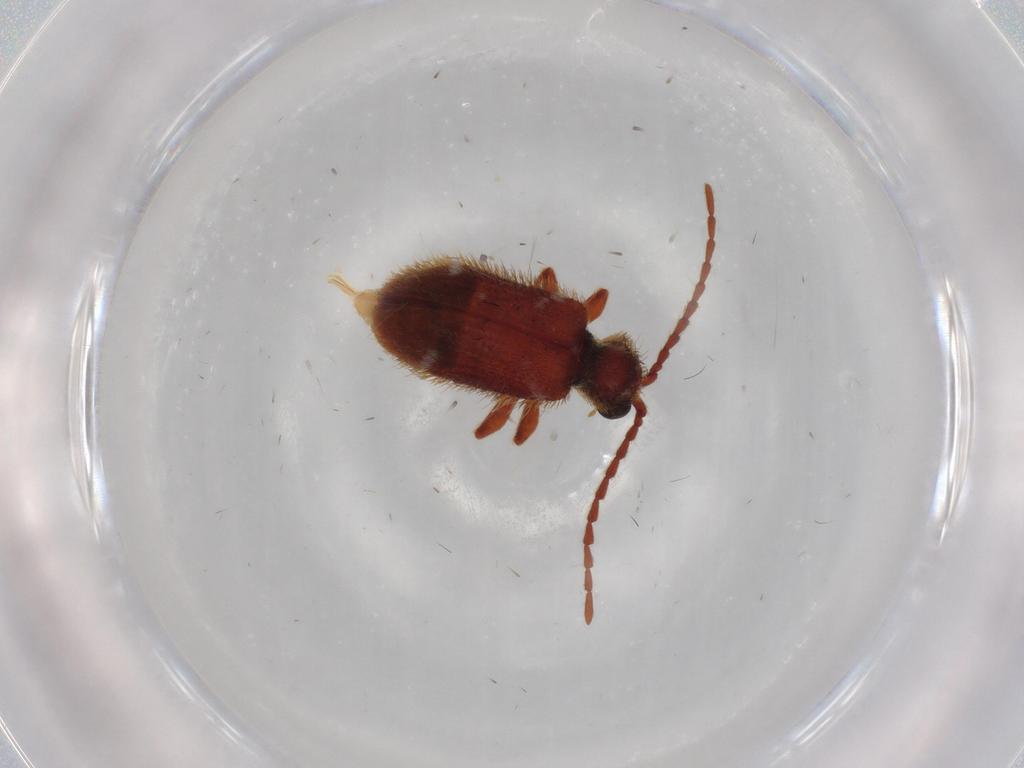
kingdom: Animalia
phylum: Arthropoda
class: Insecta
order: Coleoptera
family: Ptinidae
